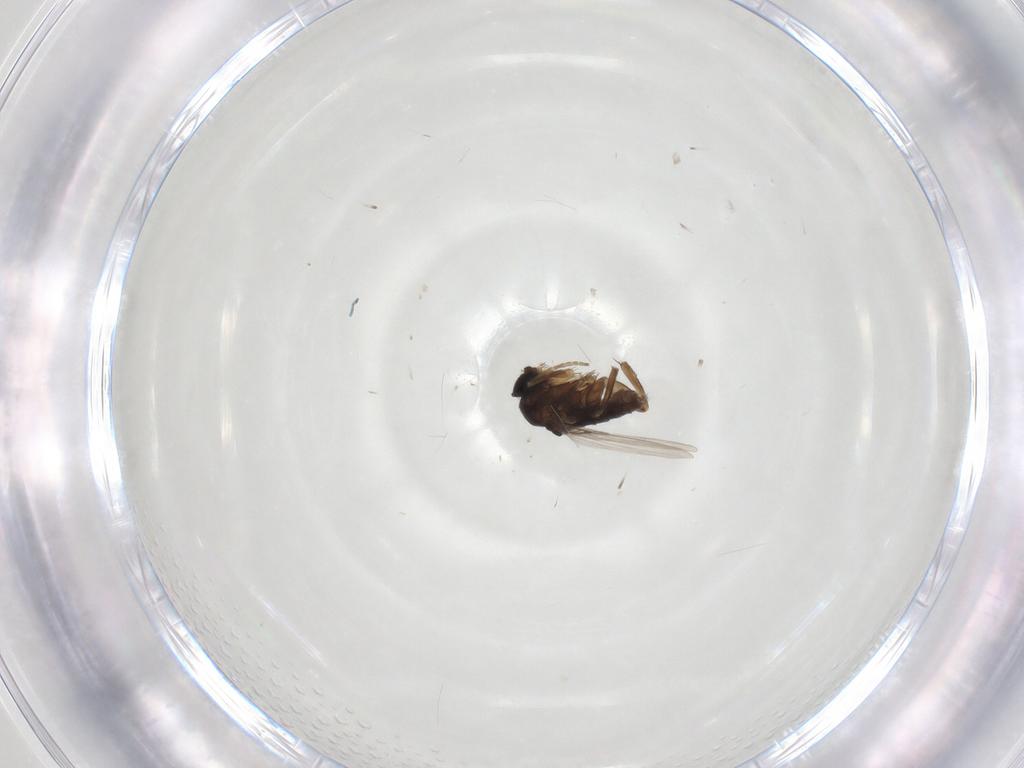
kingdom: Animalia
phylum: Arthropoda
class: Insecta
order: Diptera
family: Phoridae
